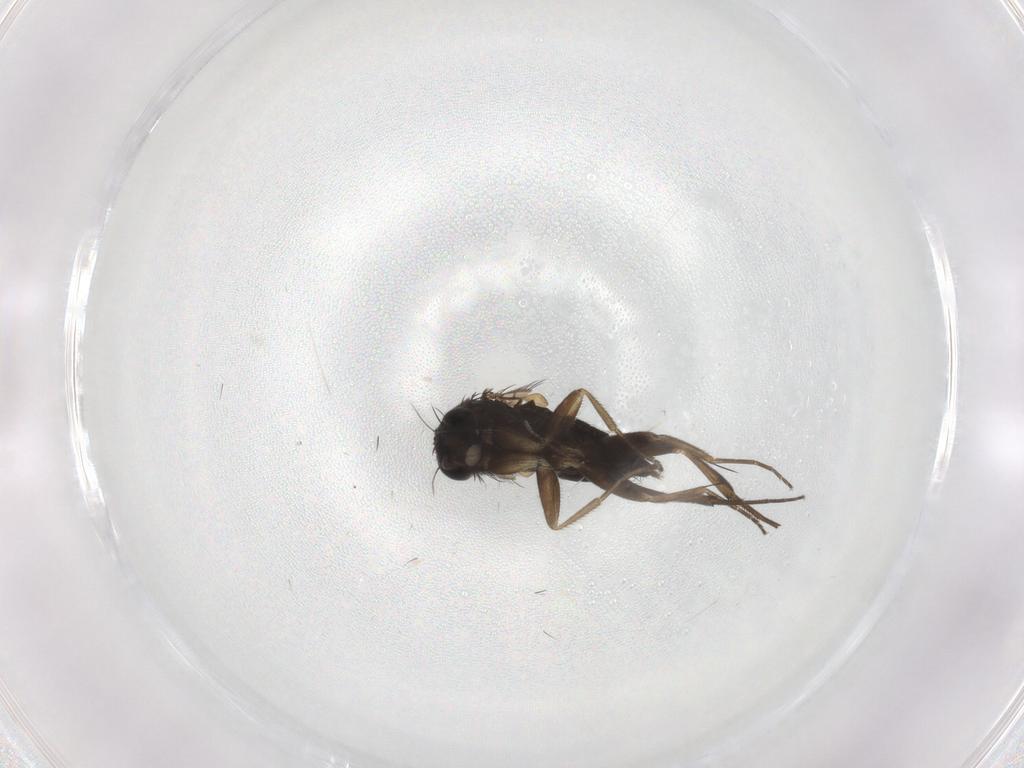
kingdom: Animalia
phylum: Arthropoda
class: Insecta
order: Diptera
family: Phoridae
